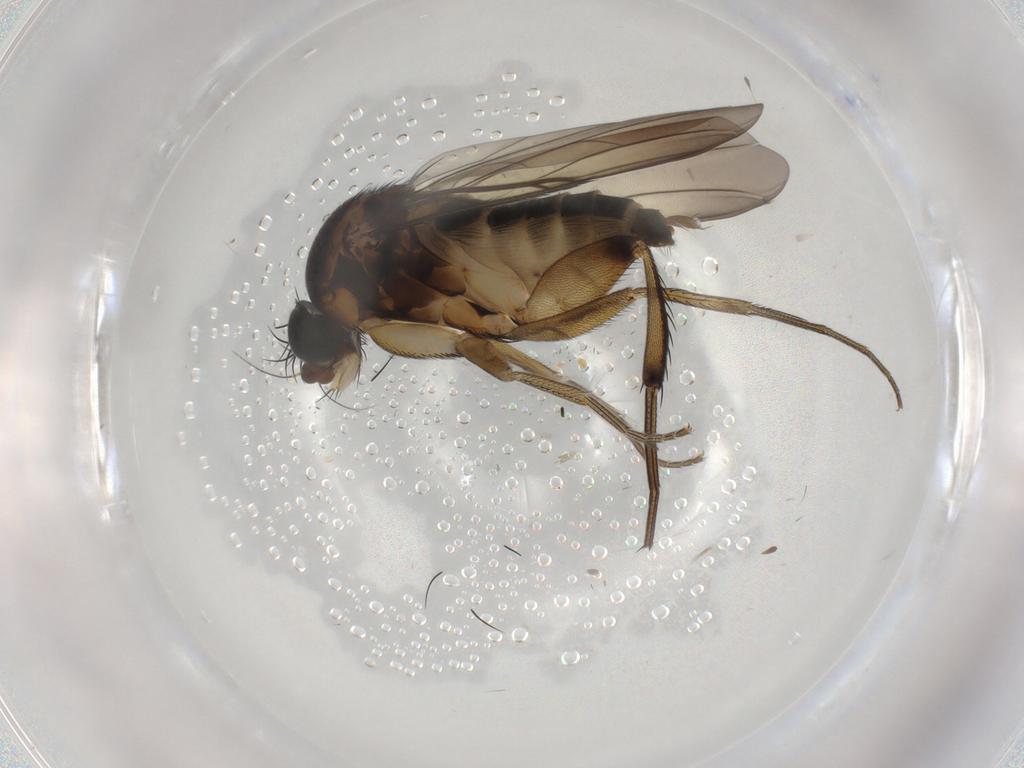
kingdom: Animalia
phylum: Arthropoda
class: Insecta
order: Diptera
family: Phoridae
